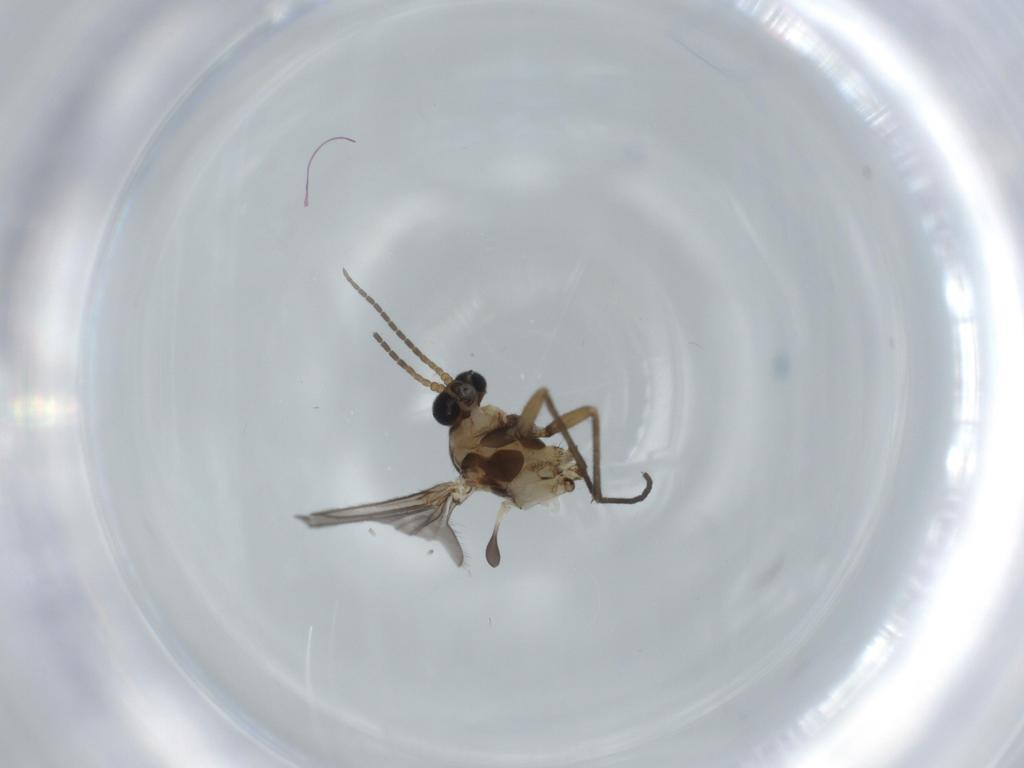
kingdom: Animalia
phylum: Arthropoda
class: Insecta
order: Diptera
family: Sciaridae
